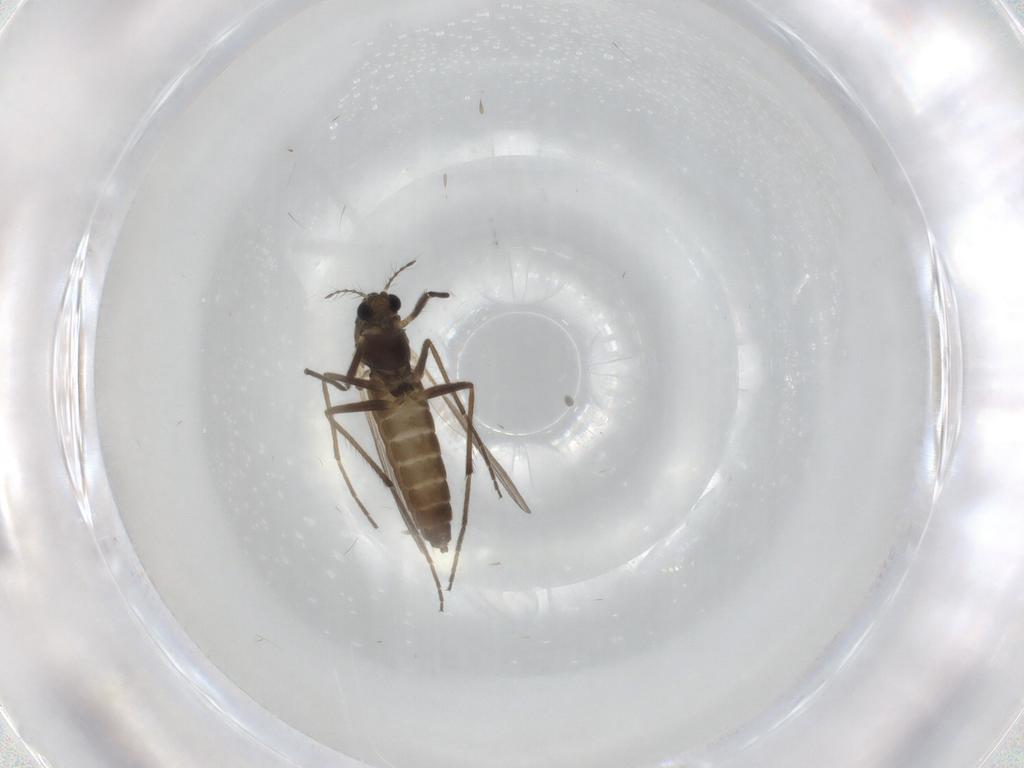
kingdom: Animalia
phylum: Arthropoda
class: Insecta
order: Diptera
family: Chironomidae
